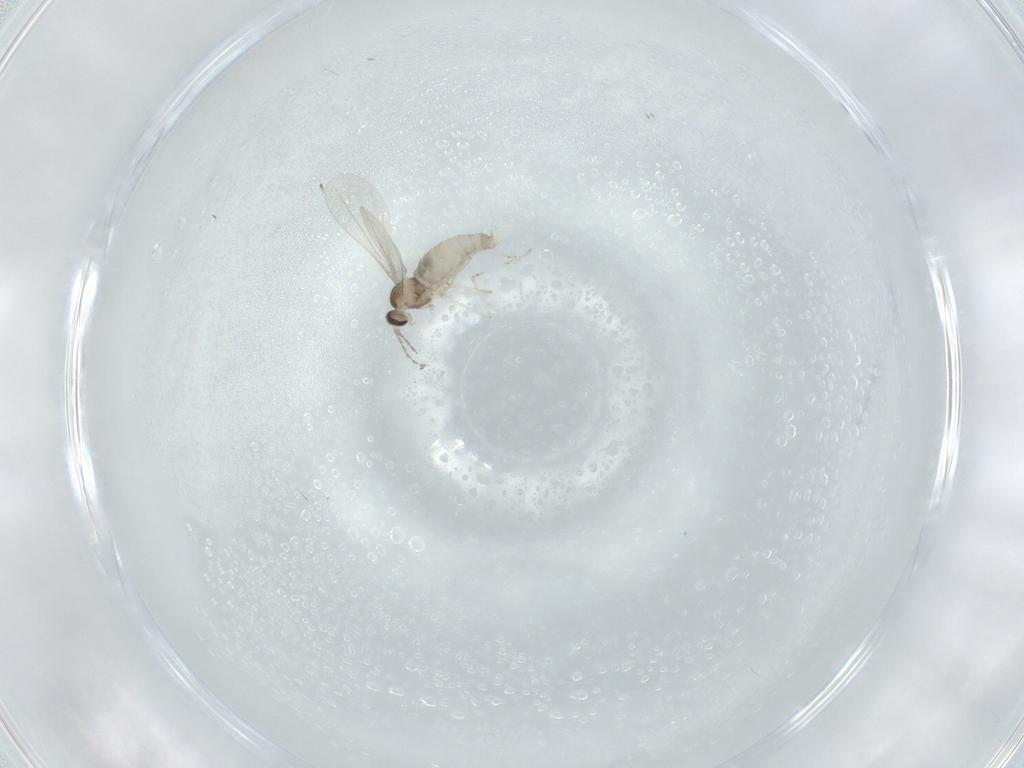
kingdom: Animalia
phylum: Arthropoda
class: Insecta
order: Diptera
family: Cecidomyiidae
